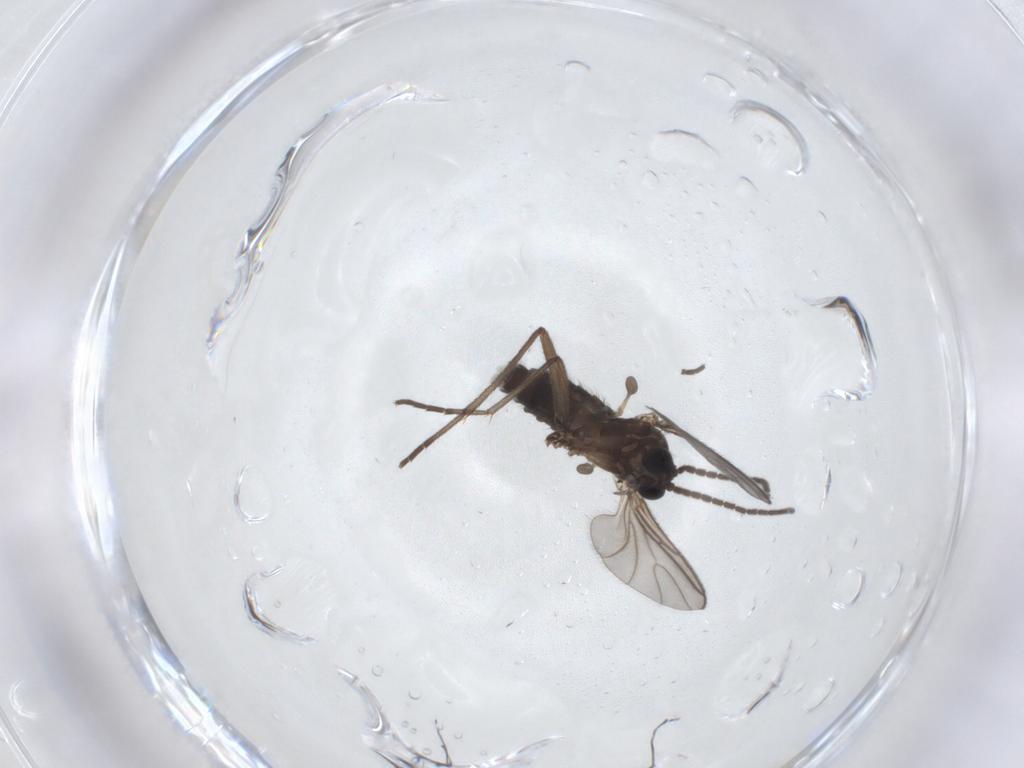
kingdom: Animalia
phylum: Arthropoda
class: Insecta
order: Diptera
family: Sciaridae
